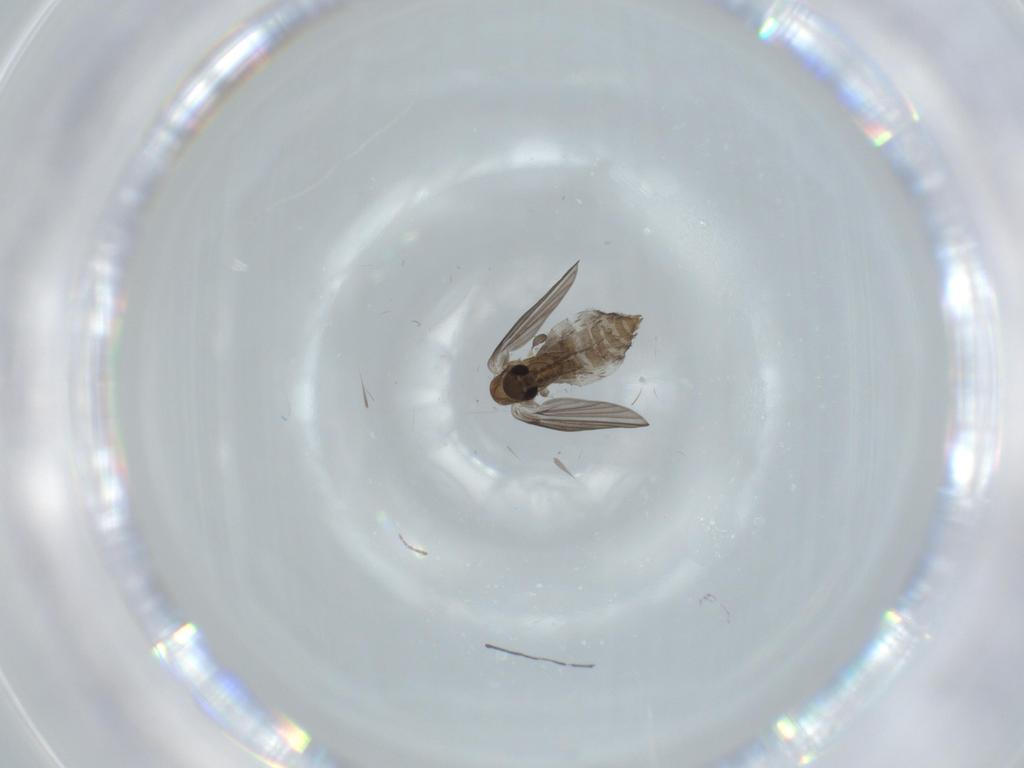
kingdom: Animalia
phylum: Arthropoda
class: Insecta
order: Diptera
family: Psychodidae
